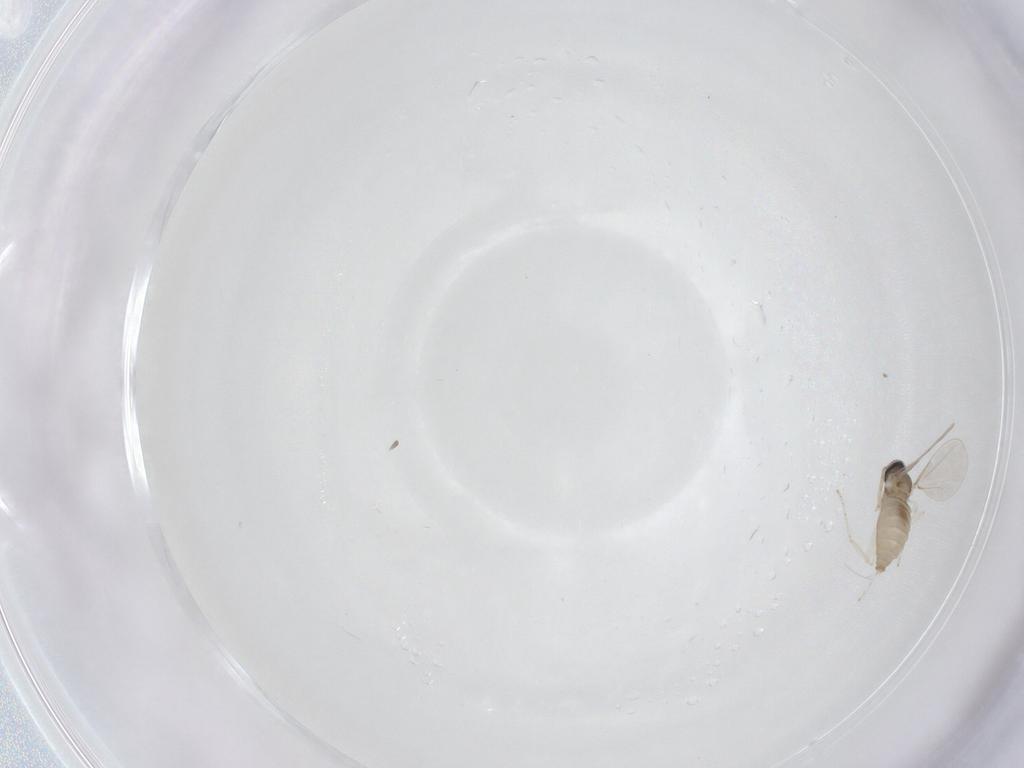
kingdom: Animalia
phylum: Arthropoda
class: Insecta
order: Diptera
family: Cecidomyiidae
